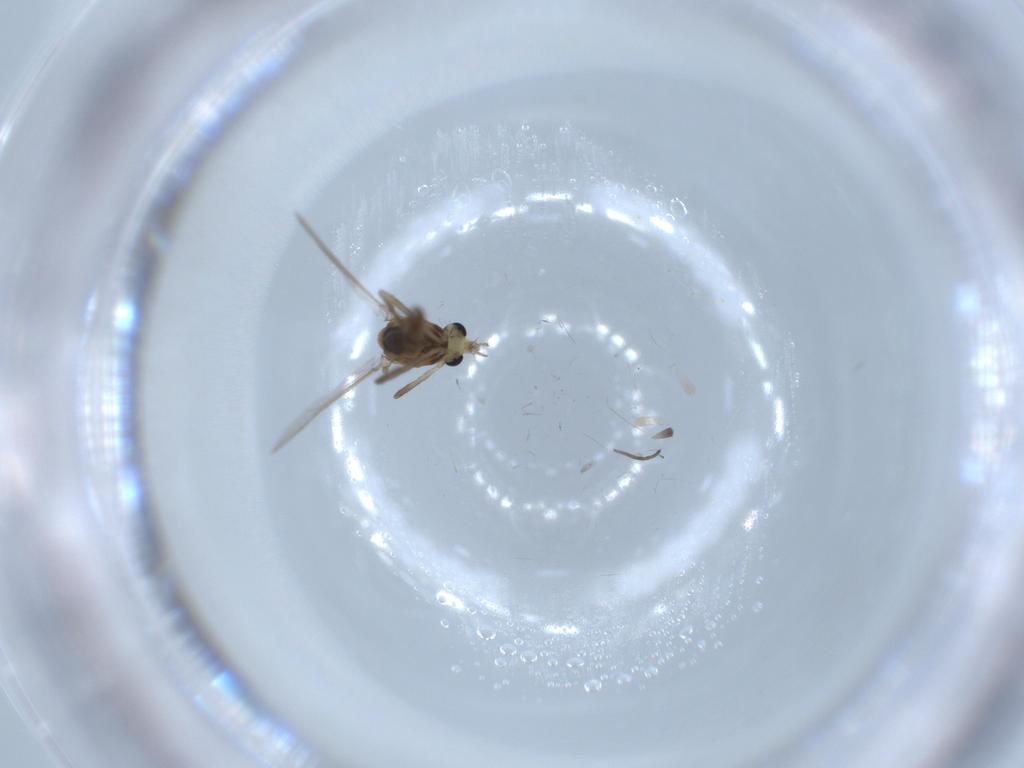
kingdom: Animalia
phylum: Arthropoda
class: Insecta
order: Diptera
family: Chironomidae
